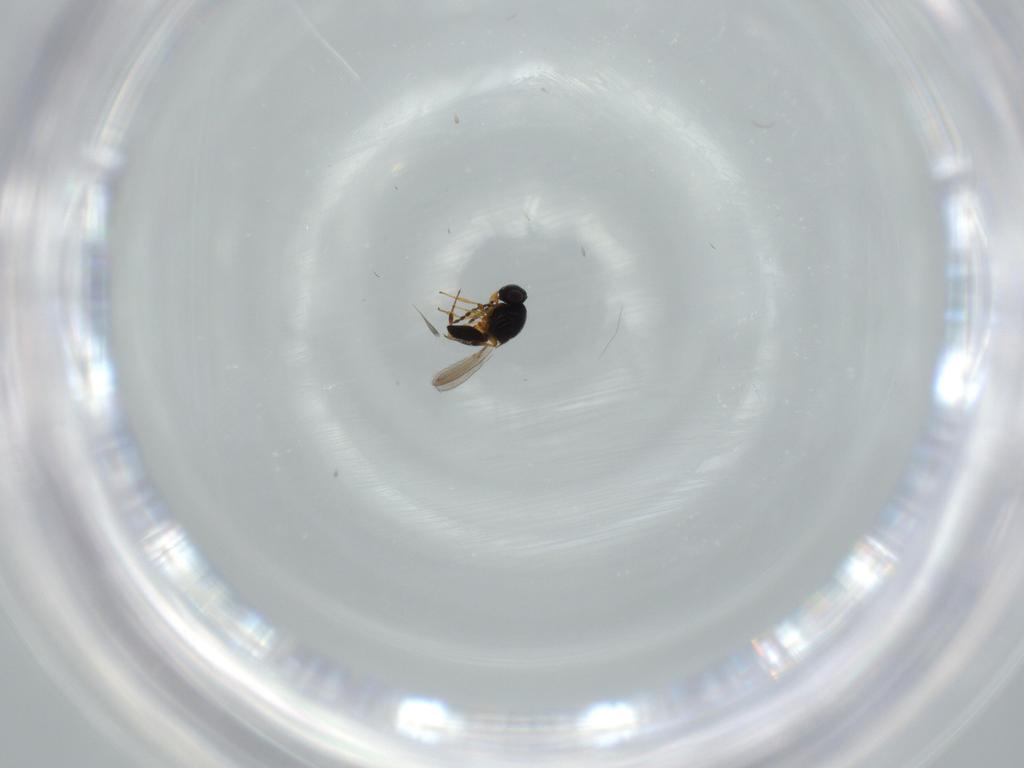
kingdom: Animalia
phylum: Arthropoda
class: Insecta
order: Hymenoptera
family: Platygastridae
